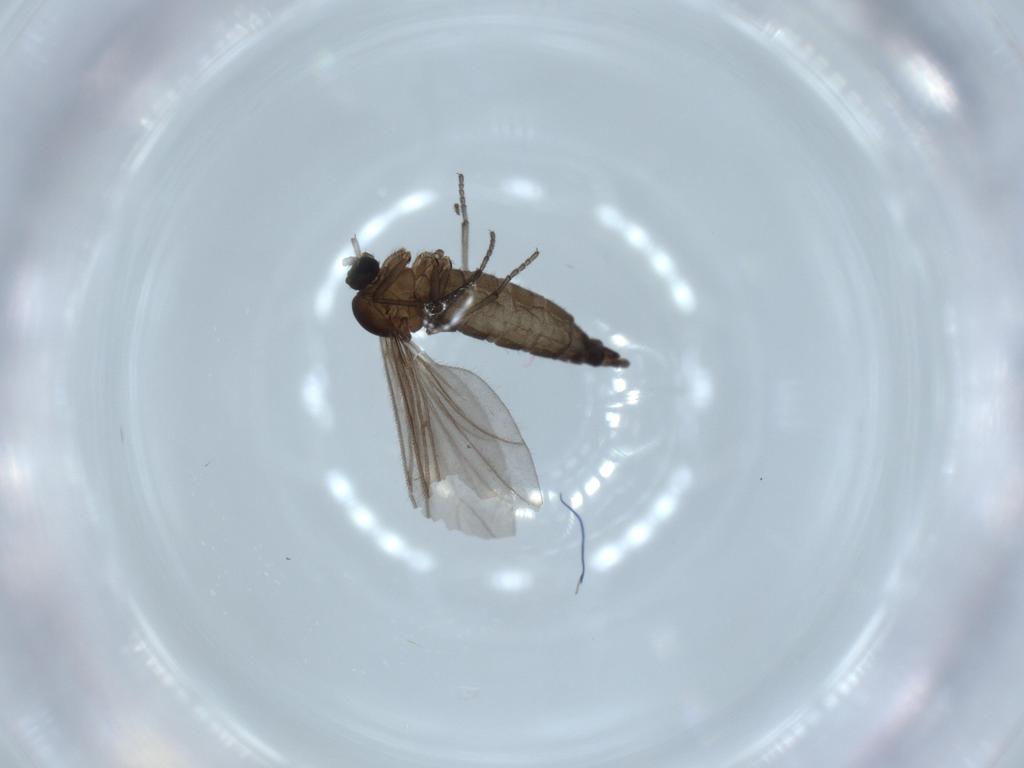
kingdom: Animalia
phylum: Arthropoda
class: Insecta
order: Diptera
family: Sciaridae
